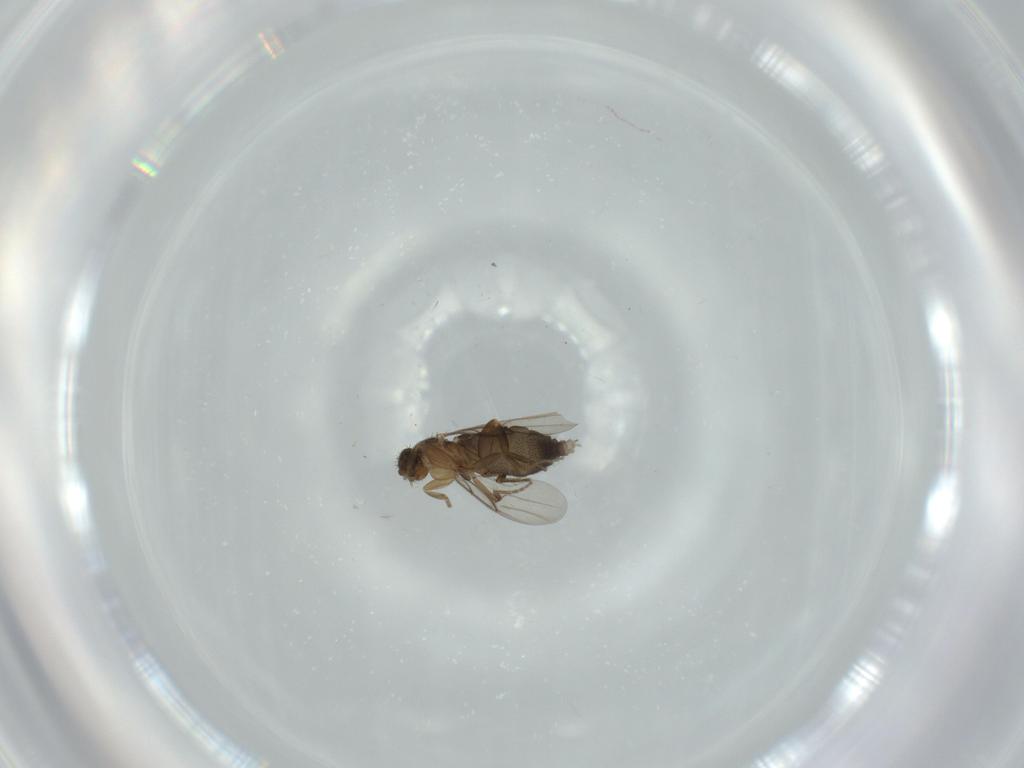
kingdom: Animalia
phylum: Arthropoda
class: Insecta
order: Diptera
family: Phoridae
